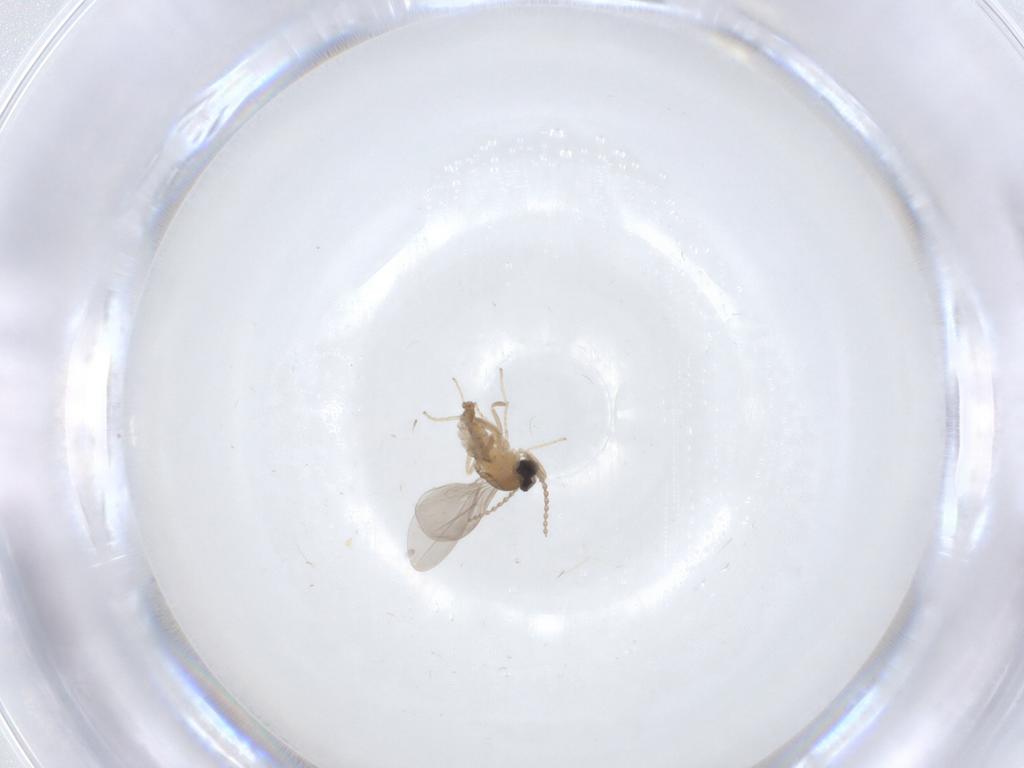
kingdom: Animalia
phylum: Arthropoda
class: Insecta
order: Diptera
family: Cecidomyiidae
